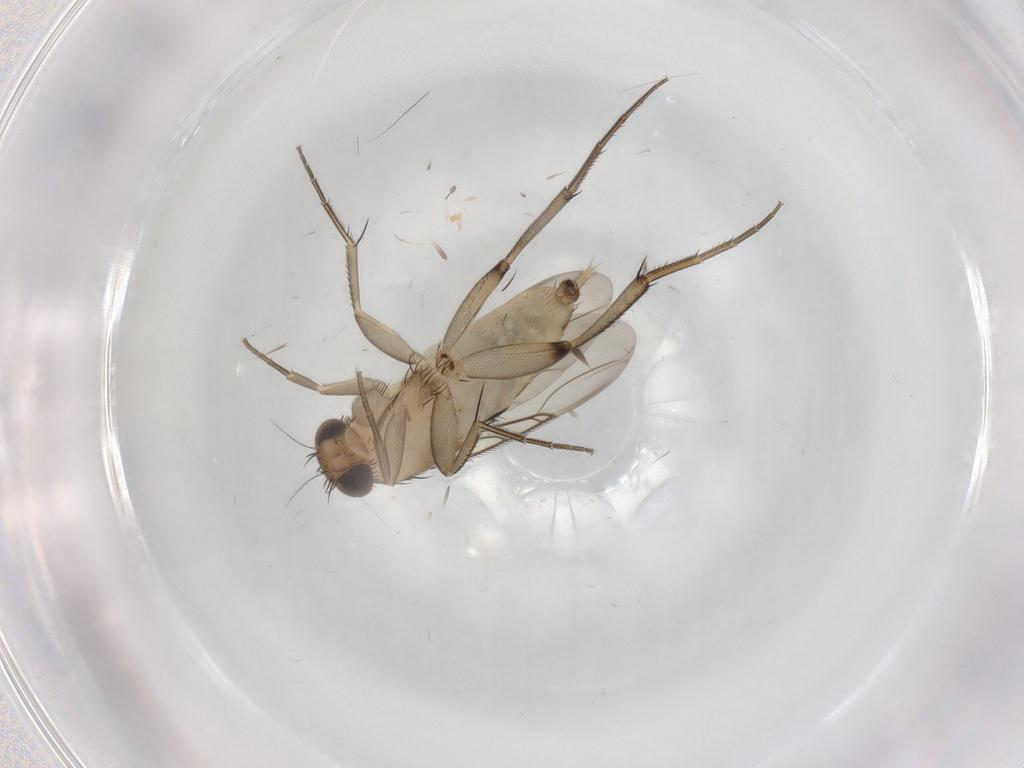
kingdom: Animalia
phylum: Arthropoda
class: Insecta
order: Diptera
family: Phoridae
